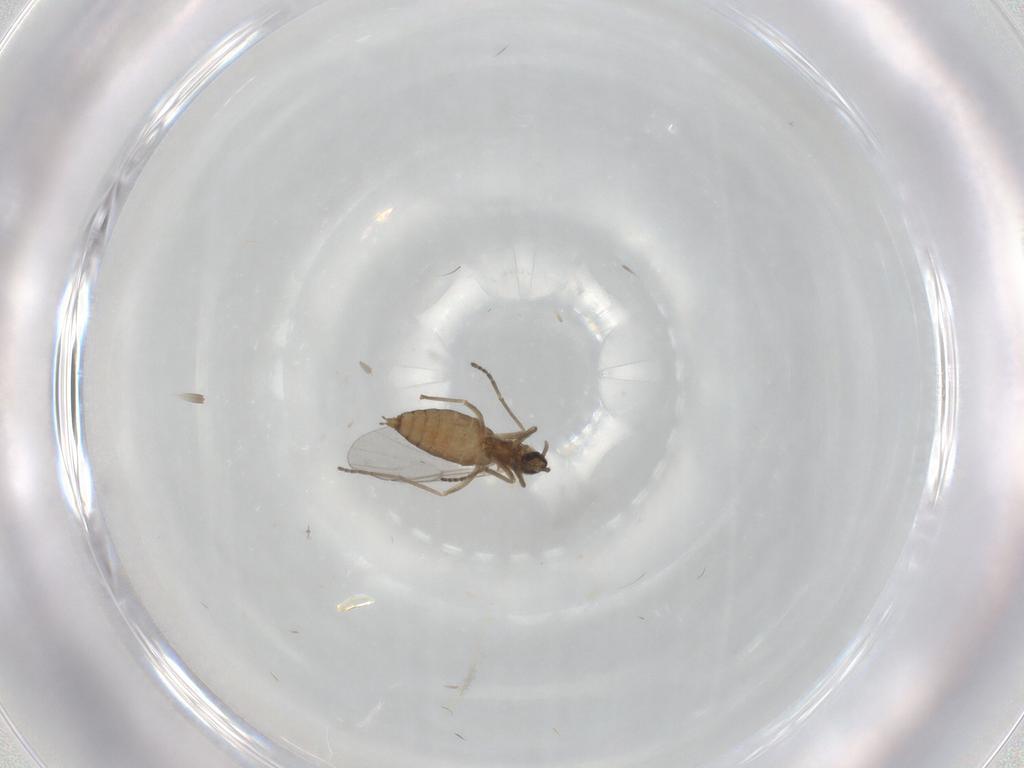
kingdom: Animalia
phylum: Arthropoda
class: Insecta
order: Diptera
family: Cecidomyiidae
